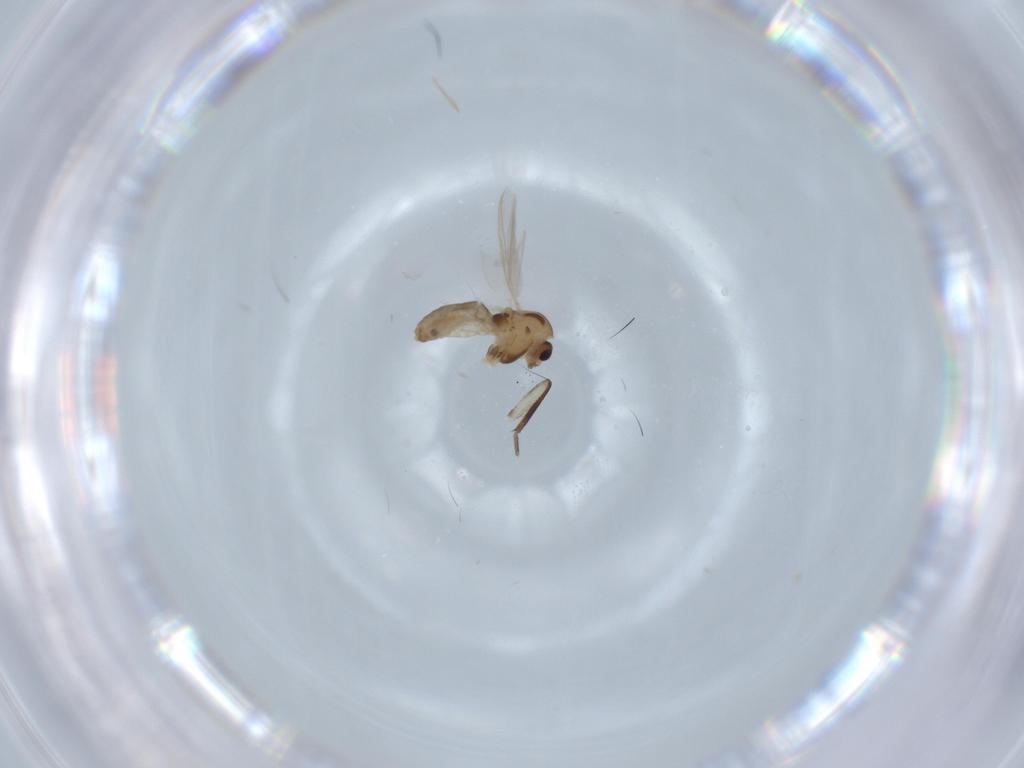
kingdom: Animalia
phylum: Arthropoda
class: Insecta
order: Diptera
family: Chironomidae
